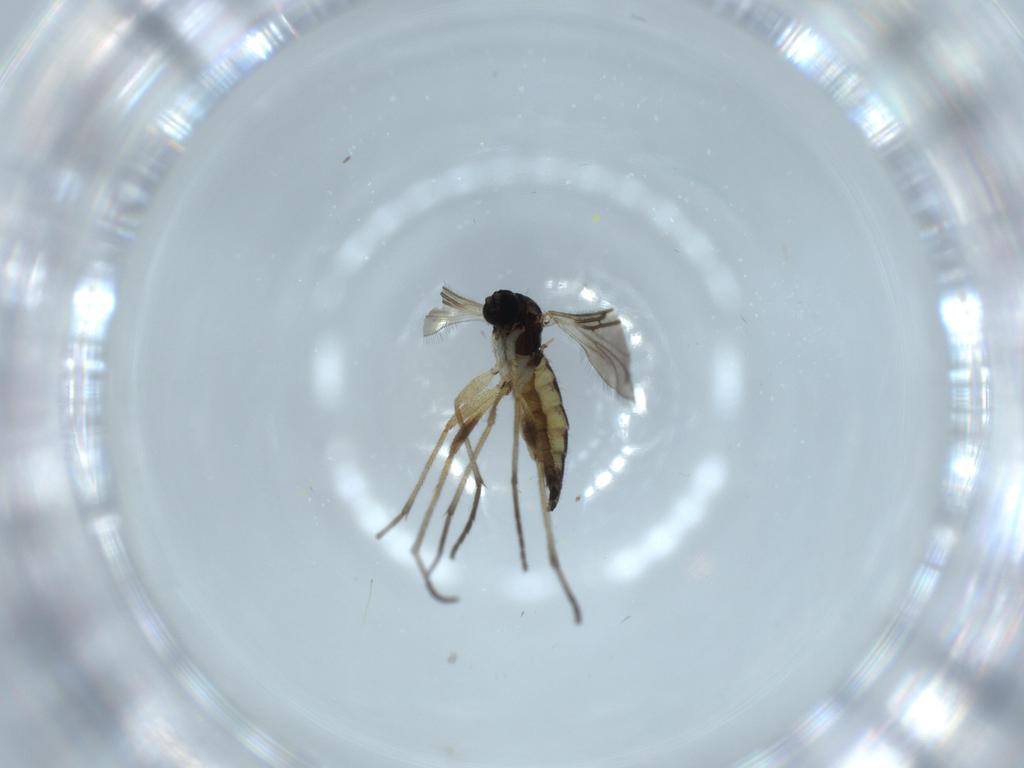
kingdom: Animalia
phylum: Arthropoda
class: Insecta
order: Diptera
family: Sciaridae
